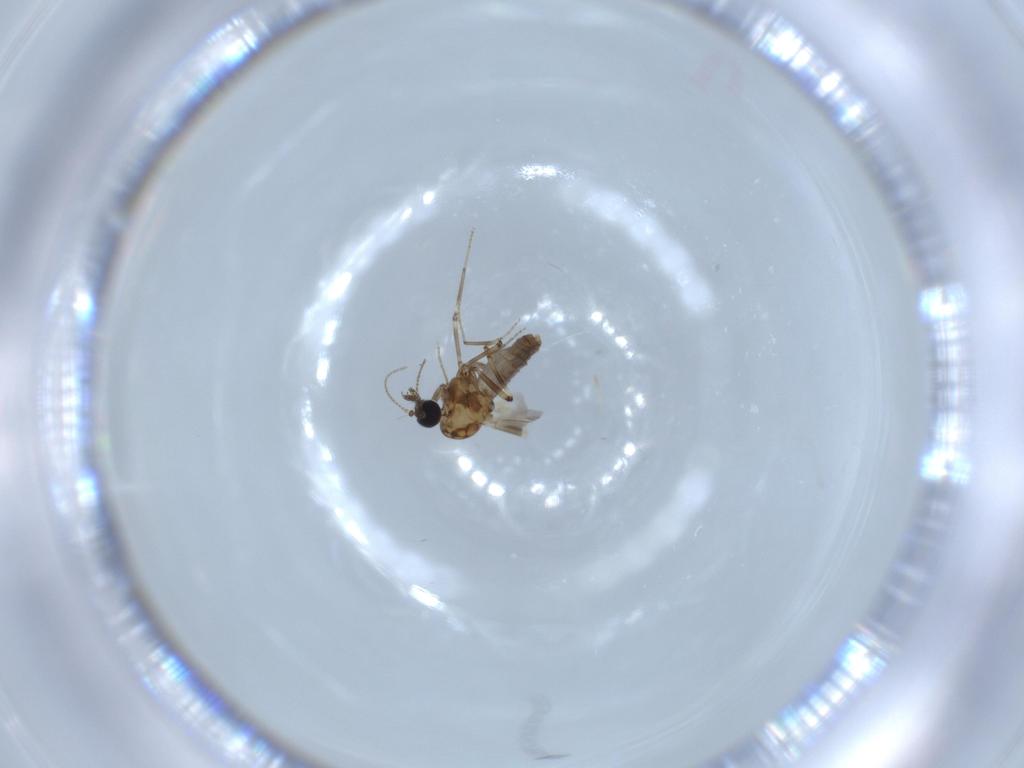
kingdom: Animalia
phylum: Arthropoda
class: Insecta
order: Diptera
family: Ceratopogonidae
